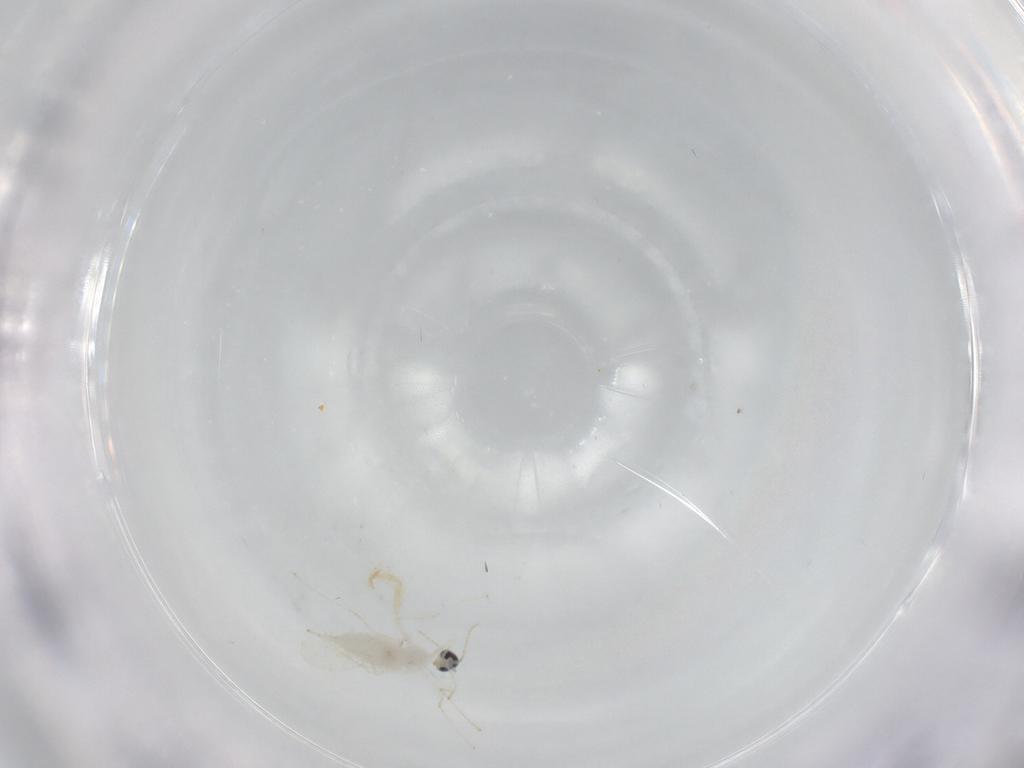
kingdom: Animalia
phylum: Arthropoda
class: Insecta
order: Diptera
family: Cecidomyiidae
